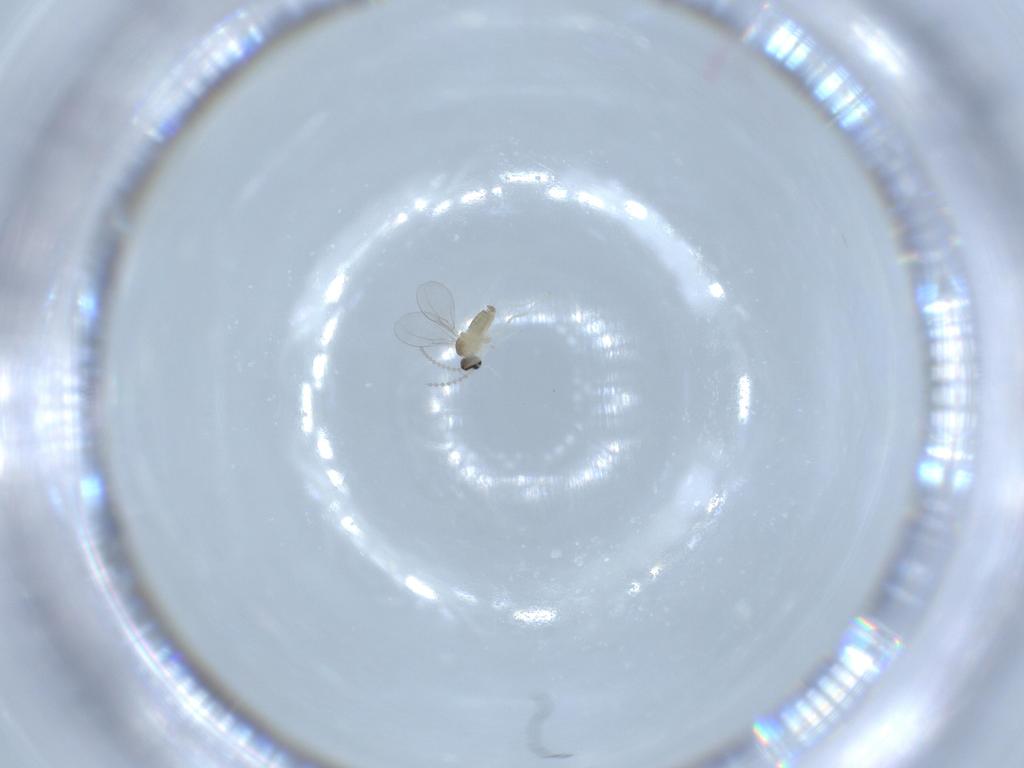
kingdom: Animalia
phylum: Arthropoda
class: Insecta
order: Diptera
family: Cecidomyiidae
